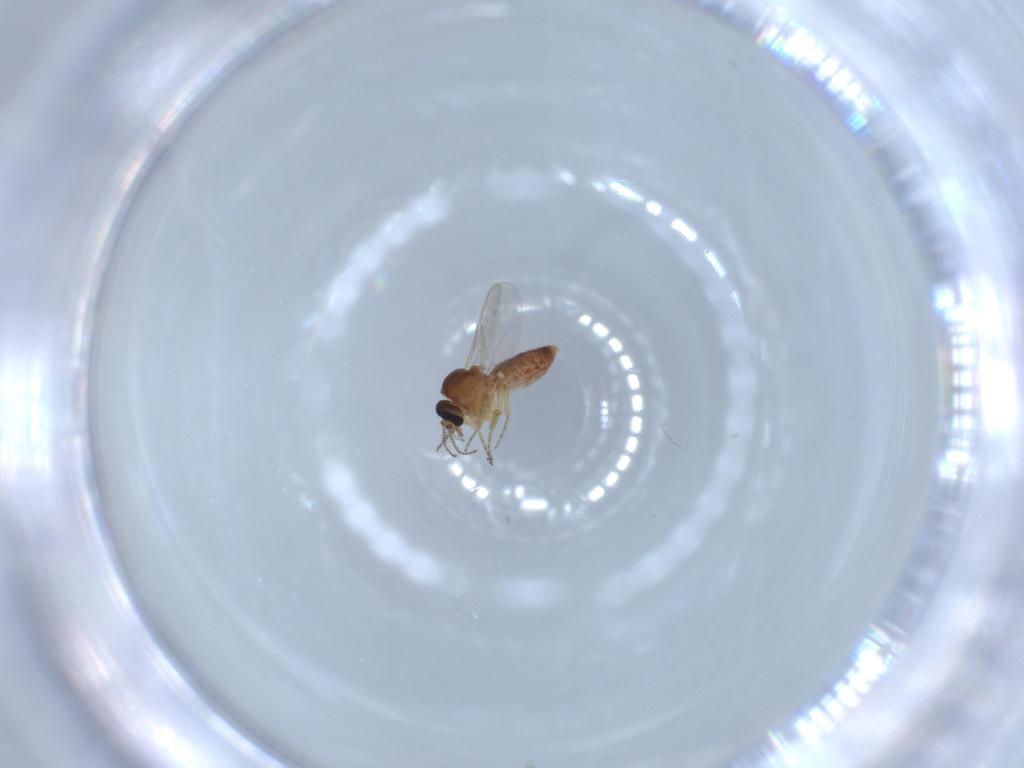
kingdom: Animalia
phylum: Arthropoda
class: Insecta
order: Diptera
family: Ceratopogonidae
